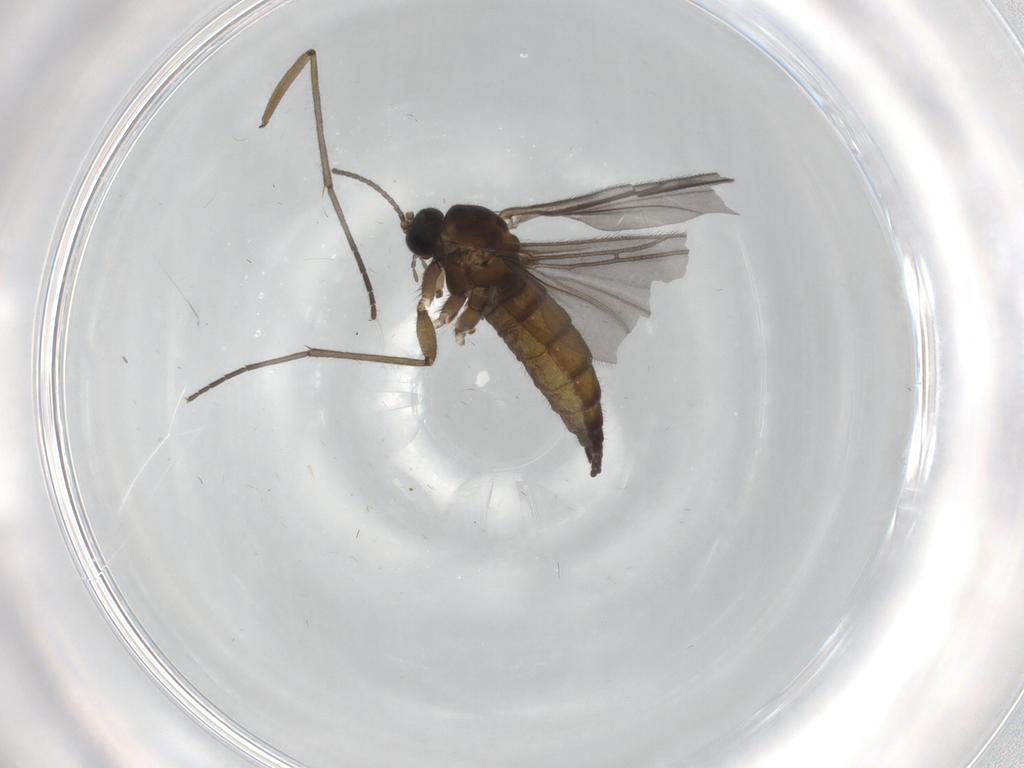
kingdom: Animalia
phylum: Arthropoda
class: Insecta
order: Diptera
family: Sciaridae
